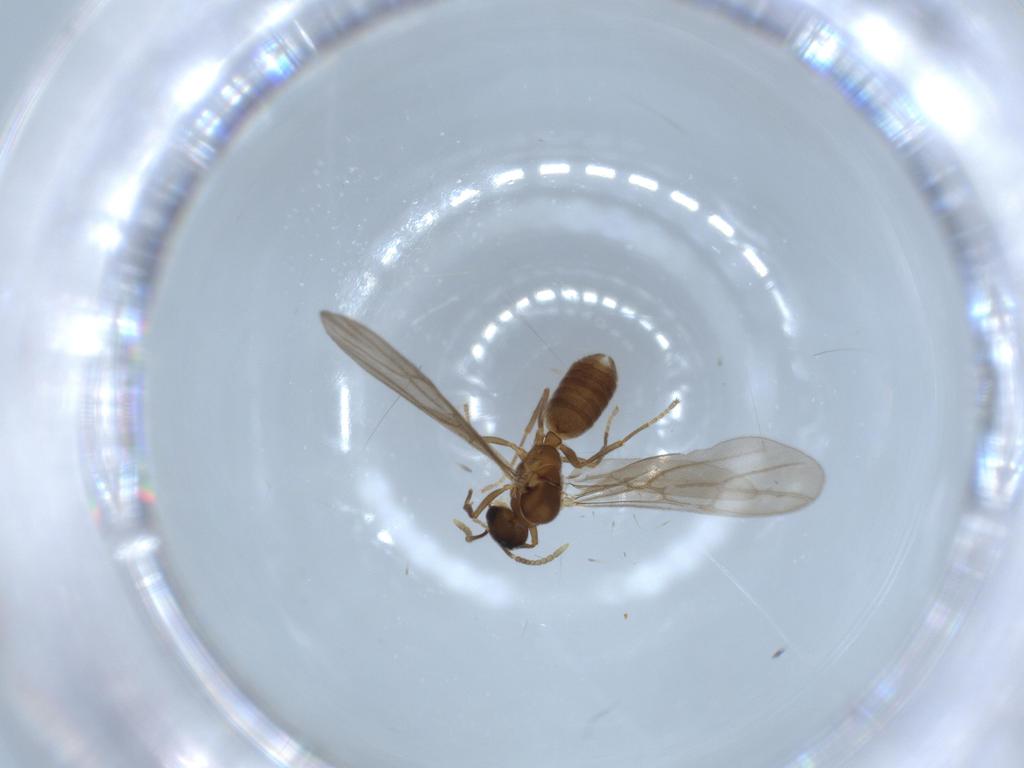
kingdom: Animalia
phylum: Arthropoda
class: Insecta
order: Hymenoptera
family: Formicidae
